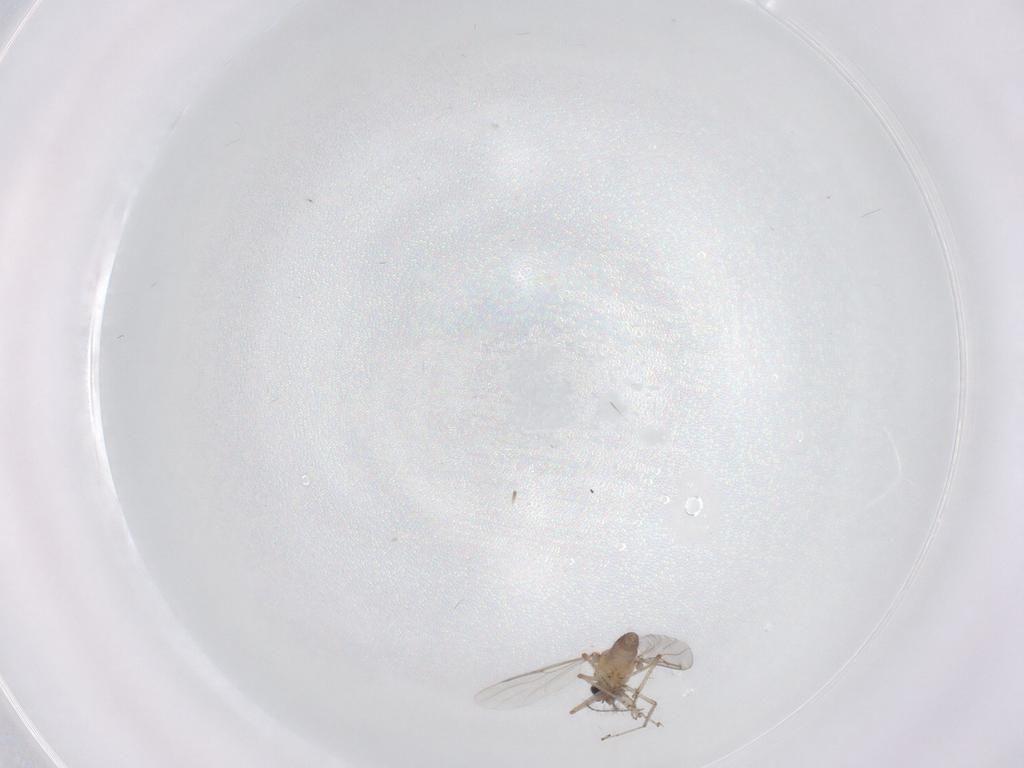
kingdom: Animalia
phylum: Arthropoda
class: Insecta
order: Diptera
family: Ceratopogonidae
